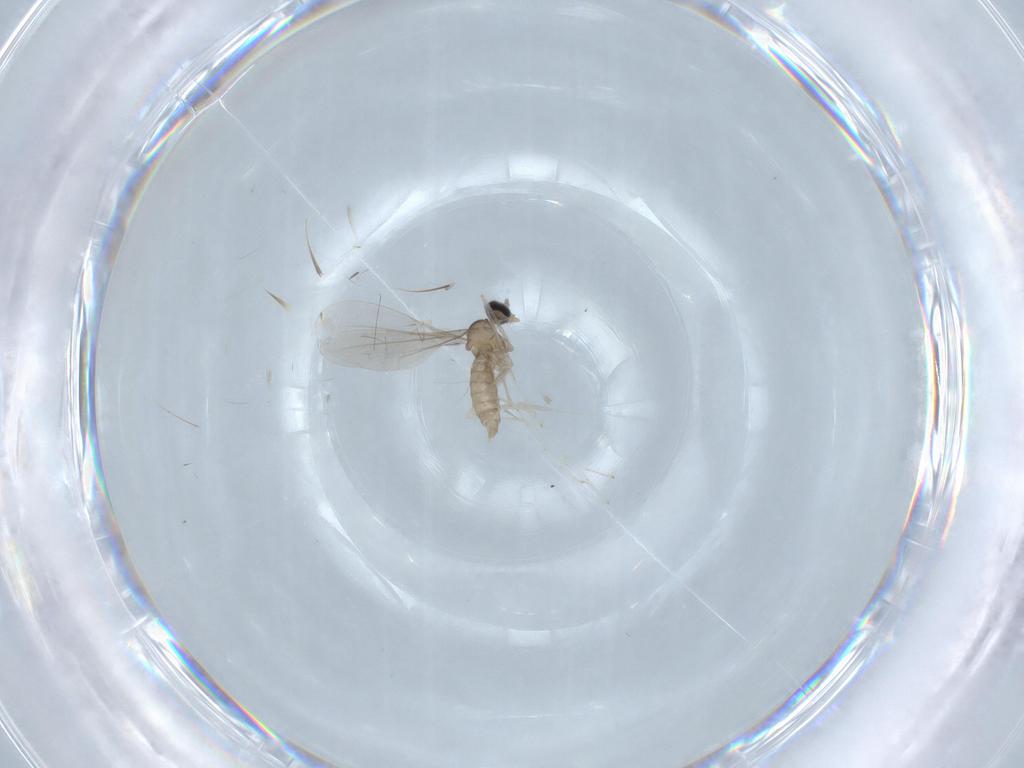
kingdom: Animalia
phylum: Arthropoda
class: Insecta
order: Diptera
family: Cecidomyiidae
